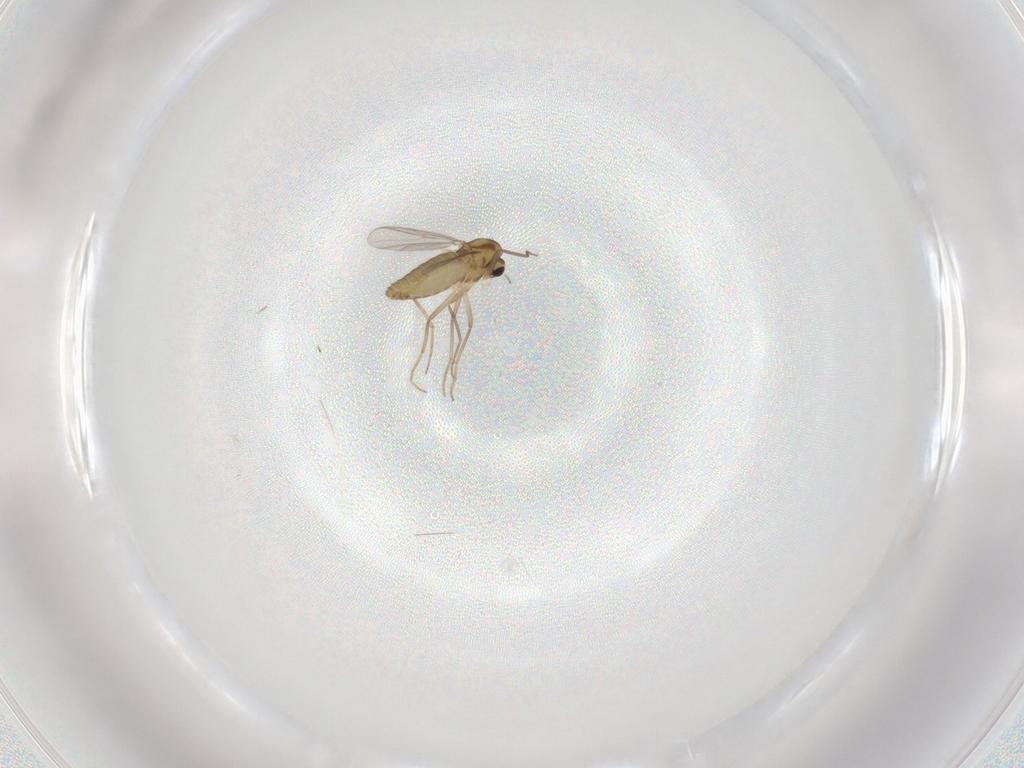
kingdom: Animalia
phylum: Arthropoda
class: Insecta
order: Diptera
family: Chironomidae
